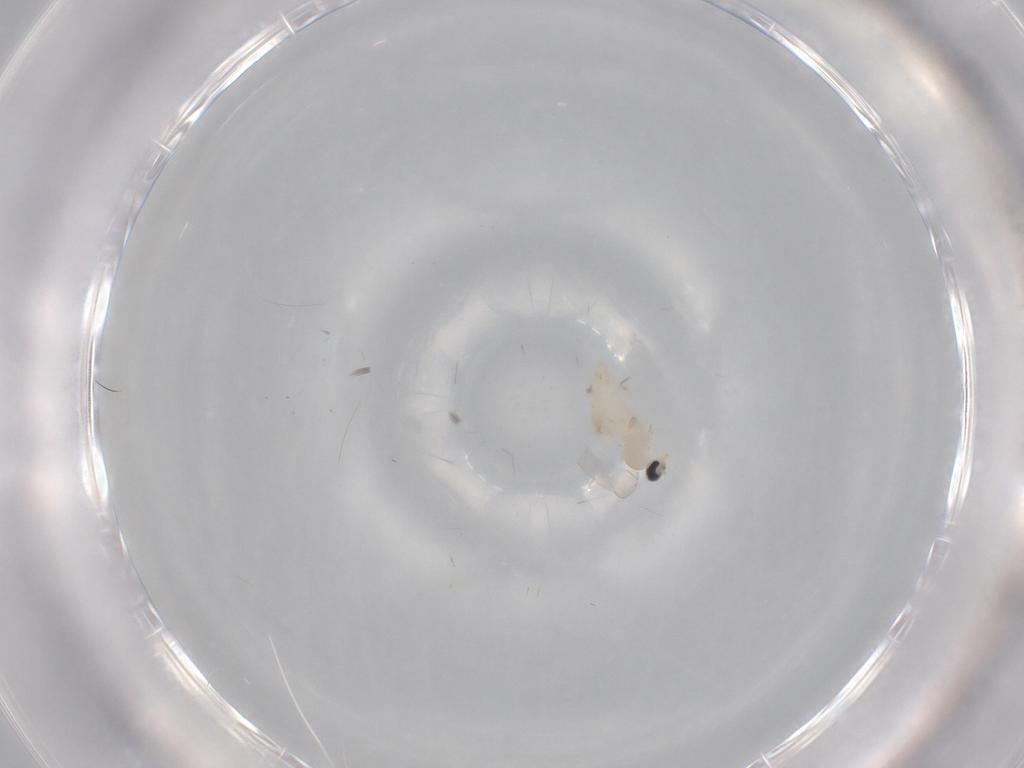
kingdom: Animalia
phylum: Arthropoda
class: Insecta
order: Diptera
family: Cecidomyiidae
